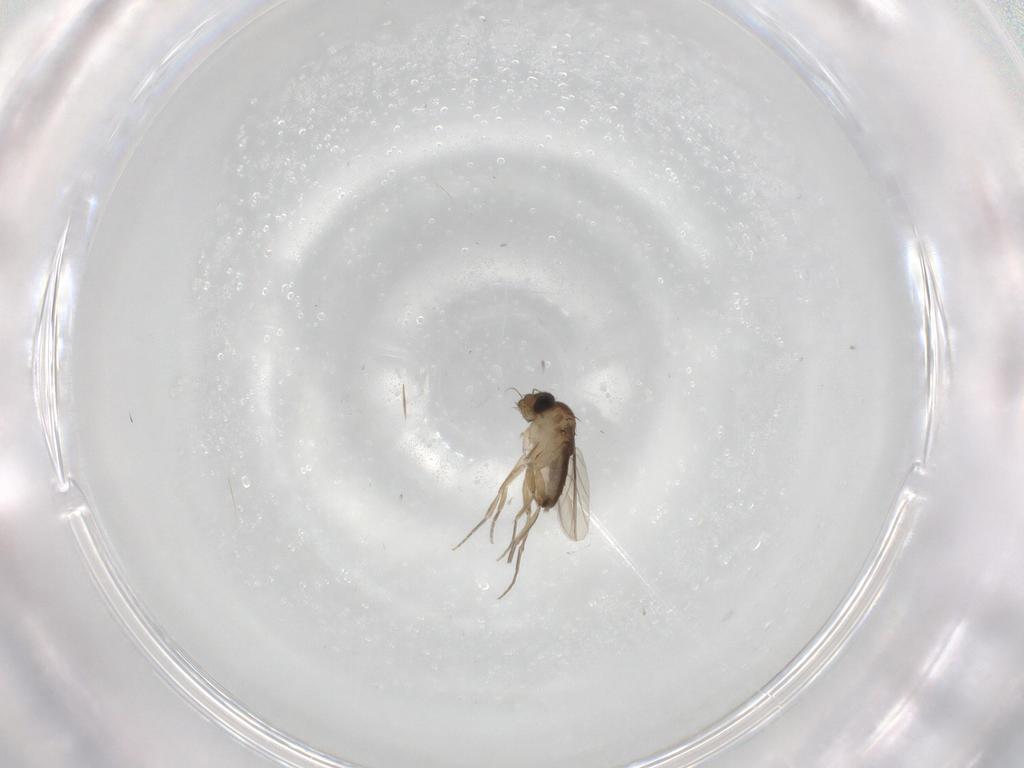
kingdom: Animalia
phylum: Arthropoda
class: Insecta
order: Diptera
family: Phoridae
